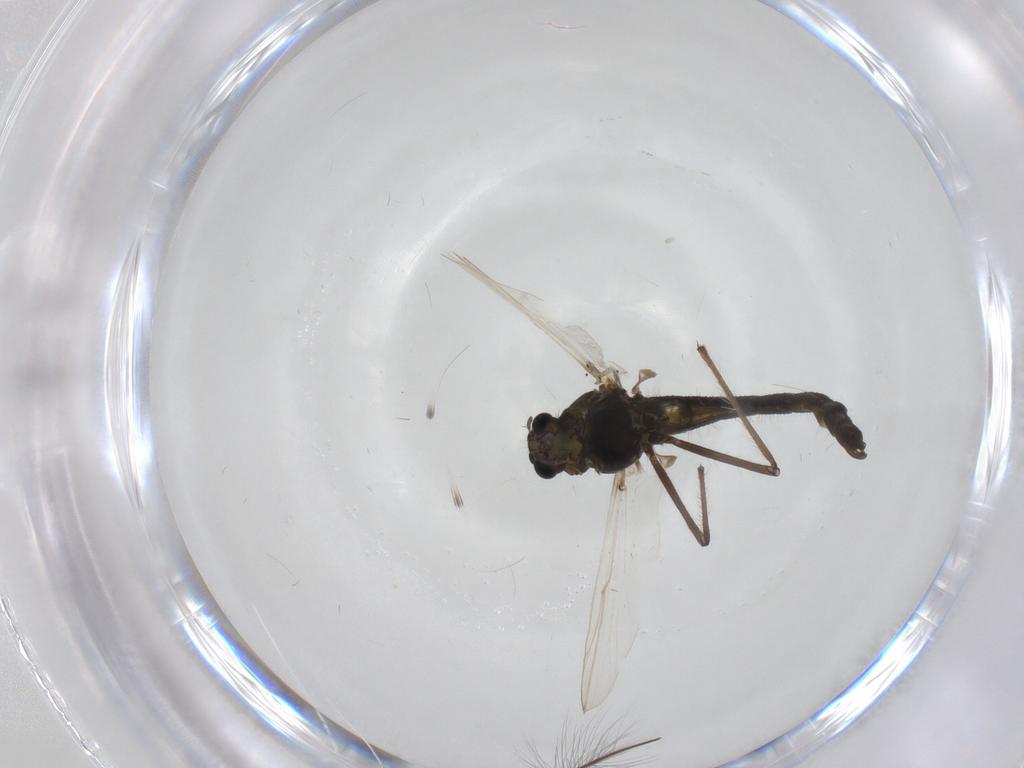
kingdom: Animalia
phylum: Arthropoda
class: Insecta
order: Diptera
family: Chironomidae
